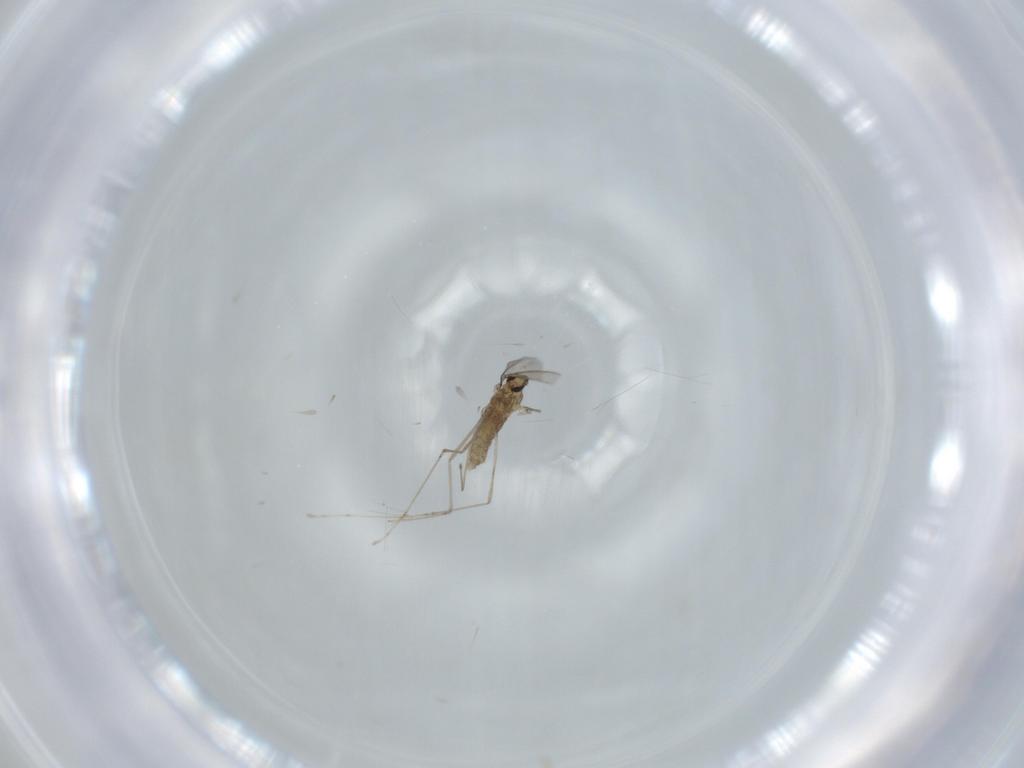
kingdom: Animalia
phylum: Arthropoda
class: Insecta
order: Diptera
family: Cecidomyiidae
